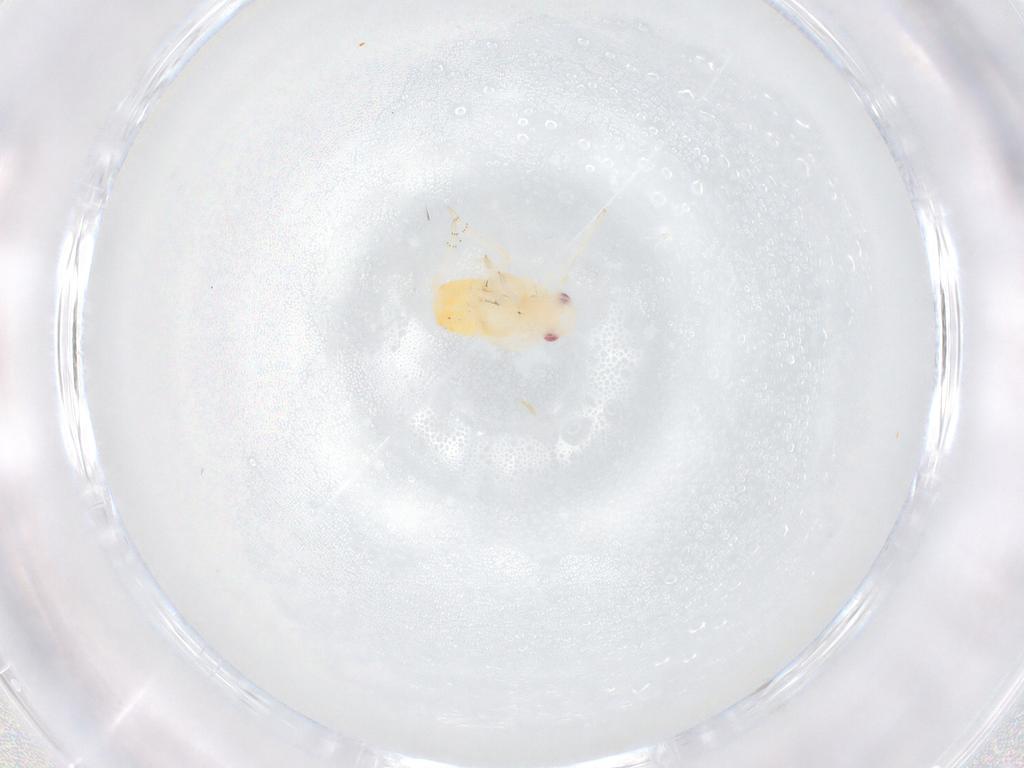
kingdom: Animalia
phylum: Arthropoda
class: Insecta
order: Hemiptera
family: Flatidae
